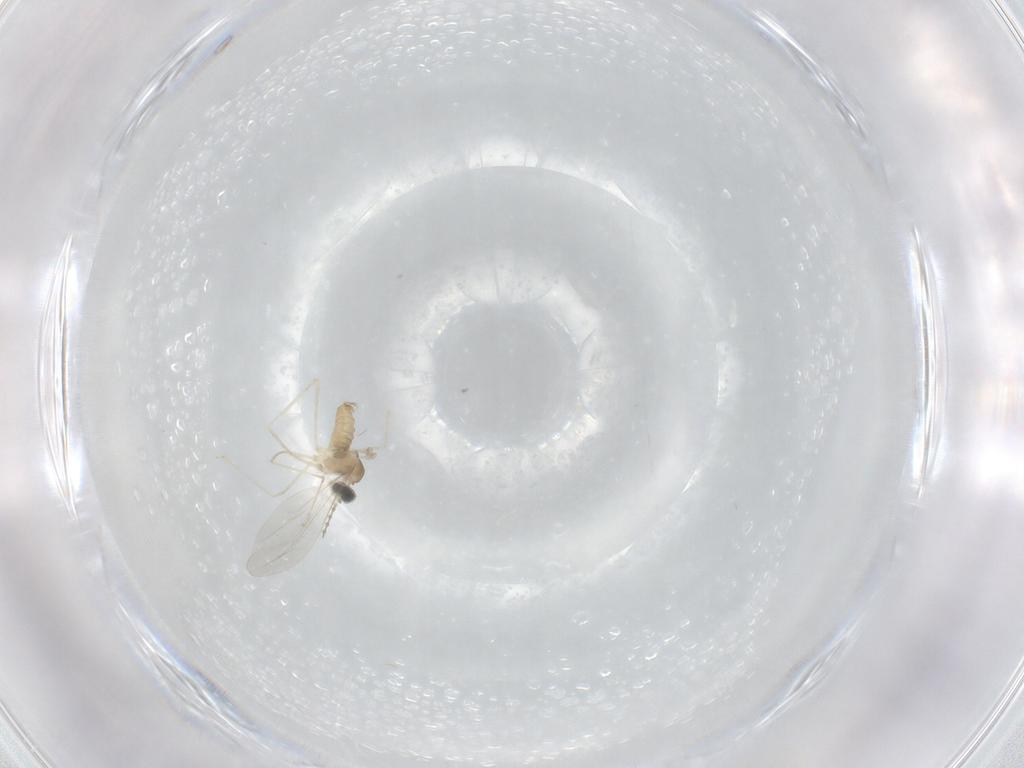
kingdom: Animalia
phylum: Arthropoda
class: Insecta
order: Diptera
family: Cecidomyiidae
